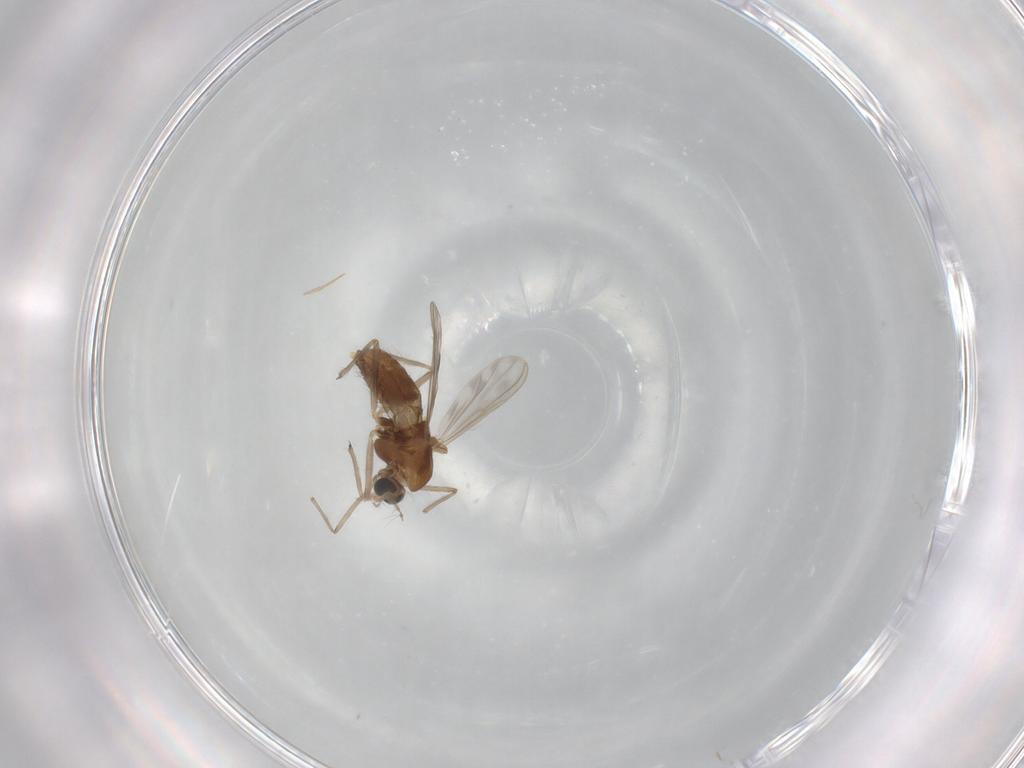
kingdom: Animalia
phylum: Arthropoda
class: Insecta
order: Diptera
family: Chironomidae
